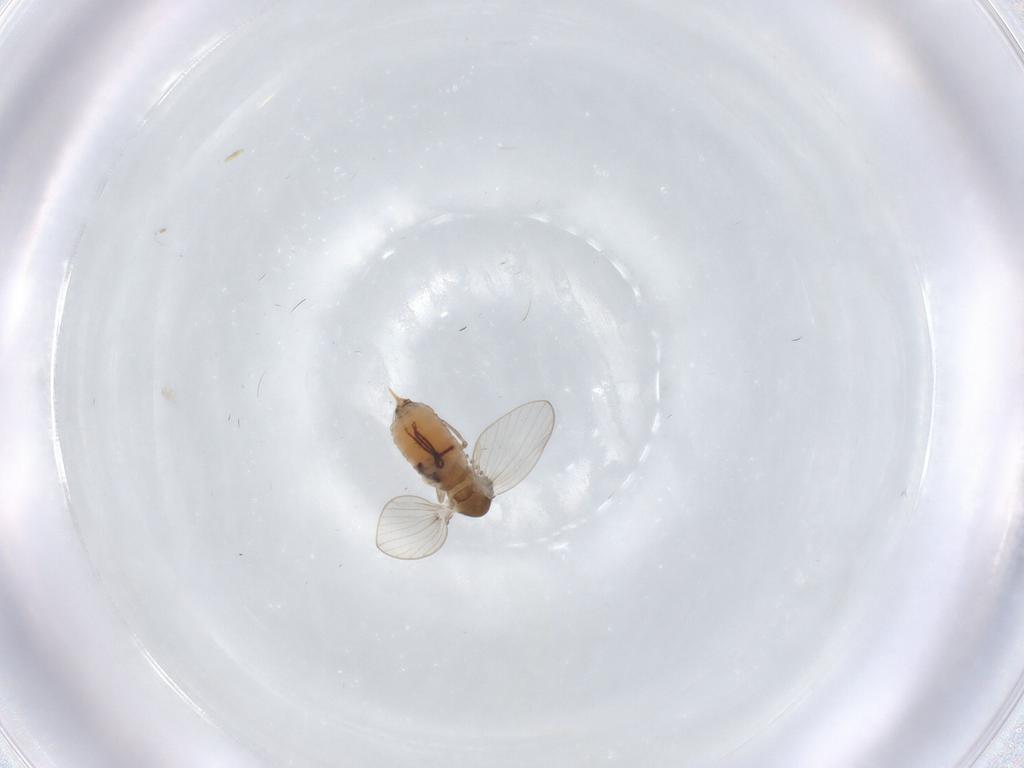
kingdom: Animalia
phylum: Arthropoda
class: Insecta
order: Diptera
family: Psychodidae
